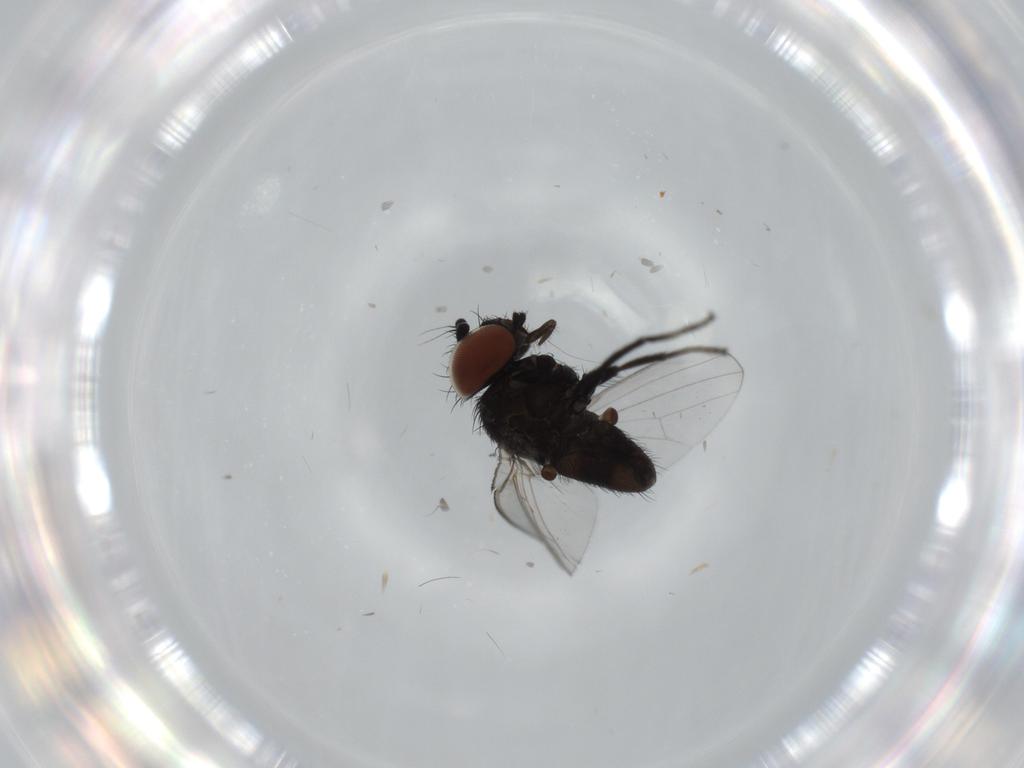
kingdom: Animalia
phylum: Arthropoda
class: Insecta
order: Diptera
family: Milichiidae
